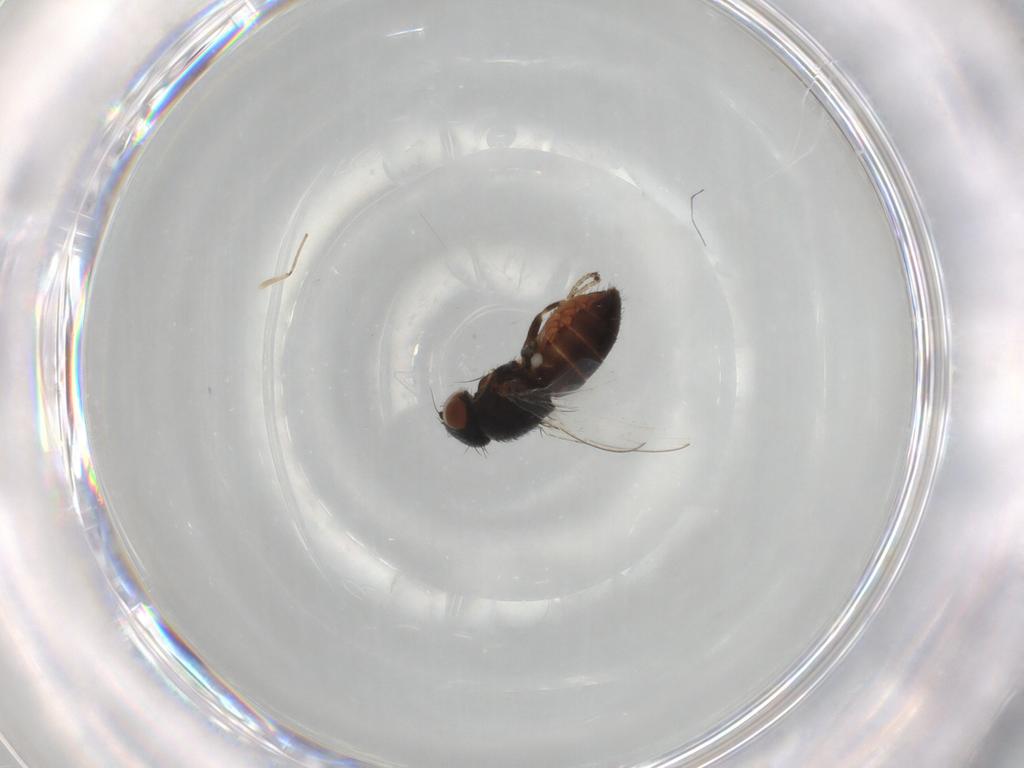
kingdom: Animalia
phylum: Arthropoda
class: Insecta
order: Diptera
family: Milichiidae
